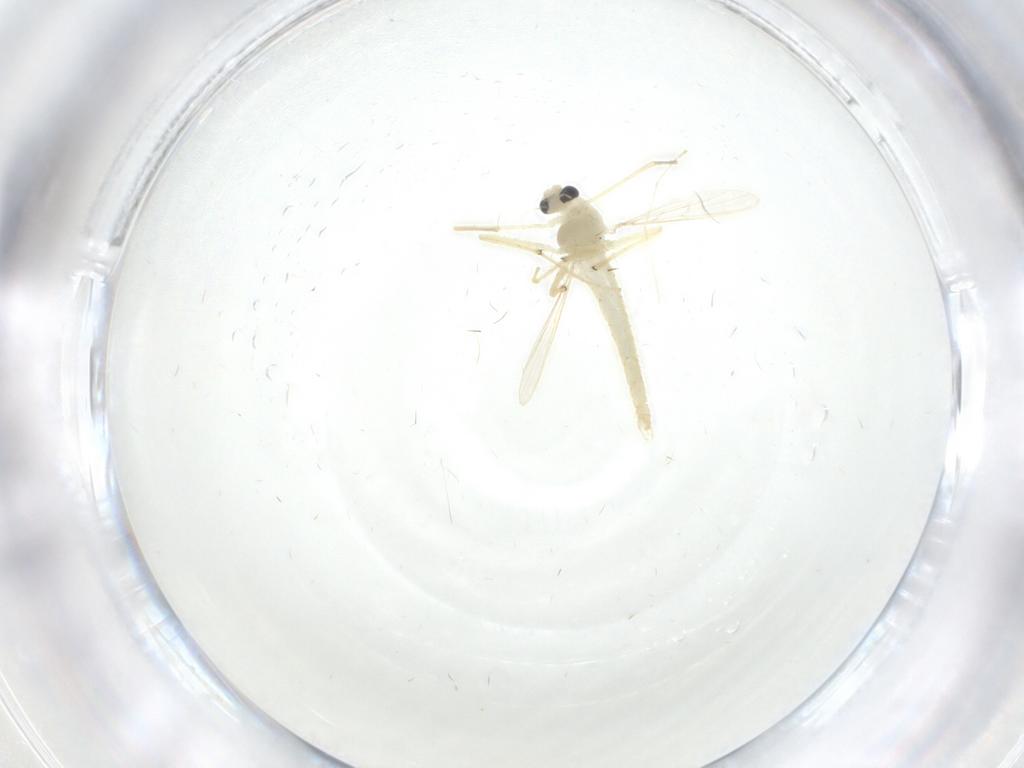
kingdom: Animalia
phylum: Arthropoda
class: Insecta
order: Diptera
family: Chironomidae
